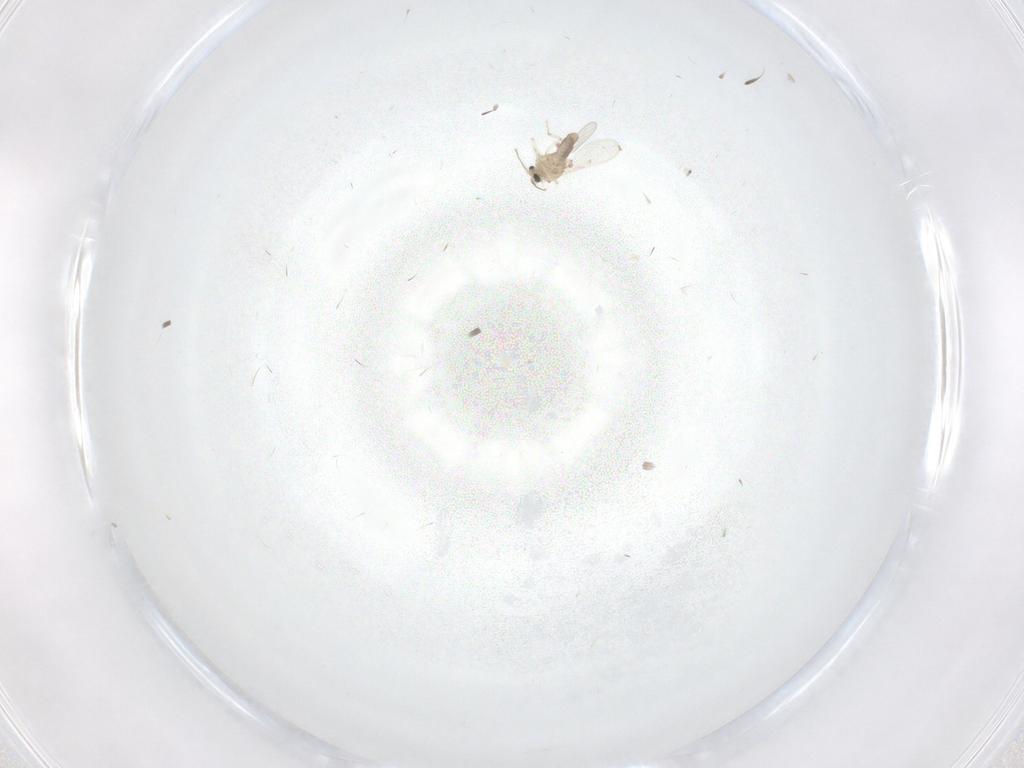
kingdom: Animalia
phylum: Arthropoda
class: Insecta
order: Diptera
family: Ceratopogonidae
